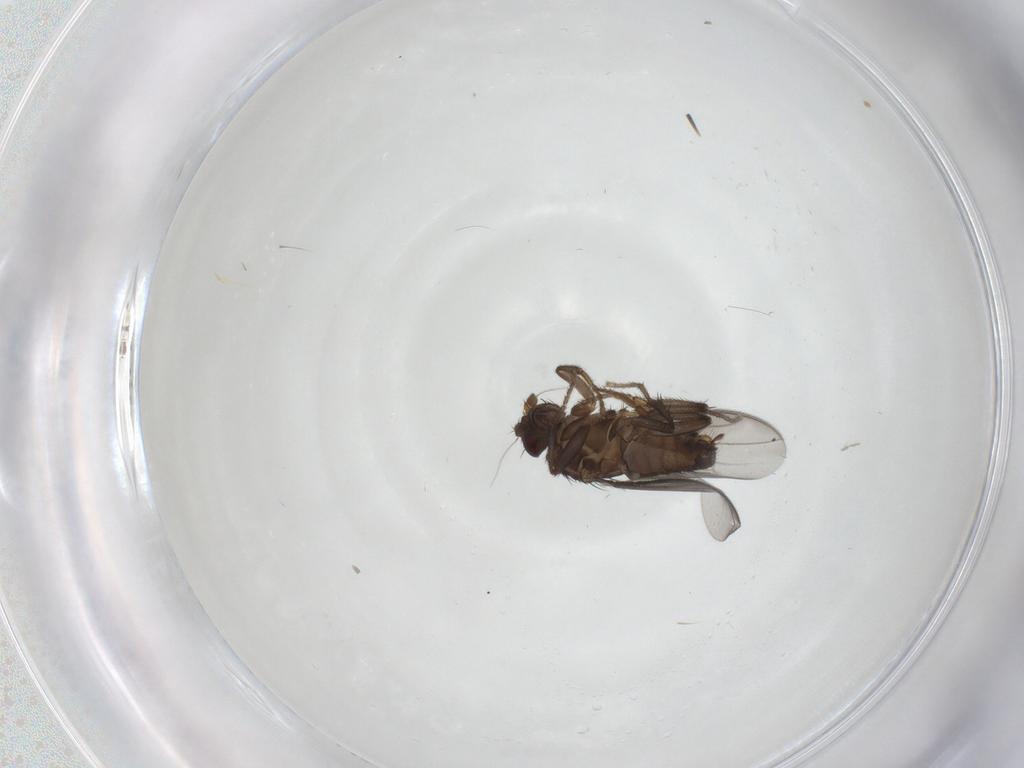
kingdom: Animalia
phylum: Arthropoda
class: Insecta
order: Diptera
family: Sphaeroceridae
